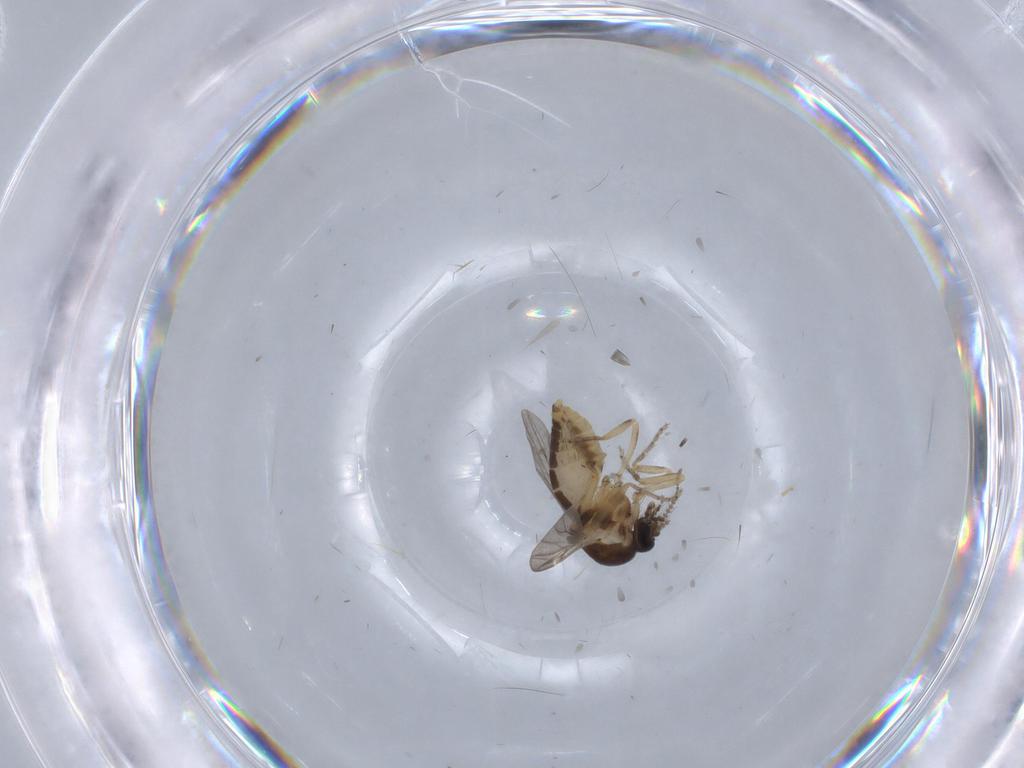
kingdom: Animalia
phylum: Arthropoda
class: Insecta
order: Diptera
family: Ceratopogonidae
